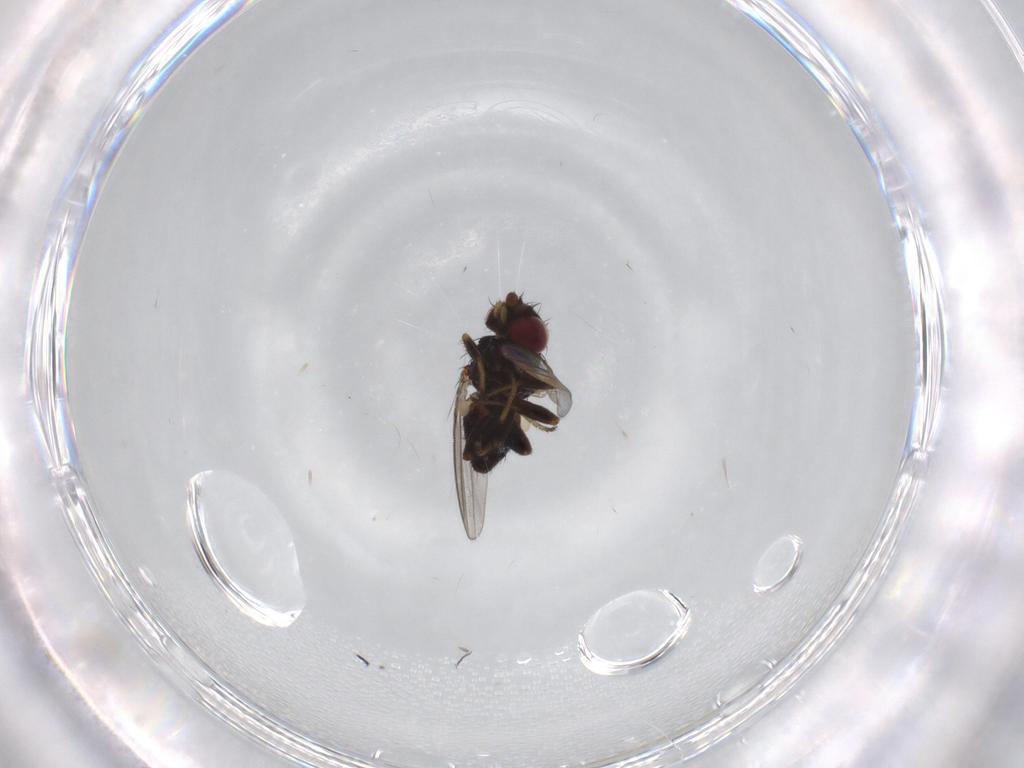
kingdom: Animalia
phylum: Arthropoda
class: Insecta
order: Diptera
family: Milichiidae
